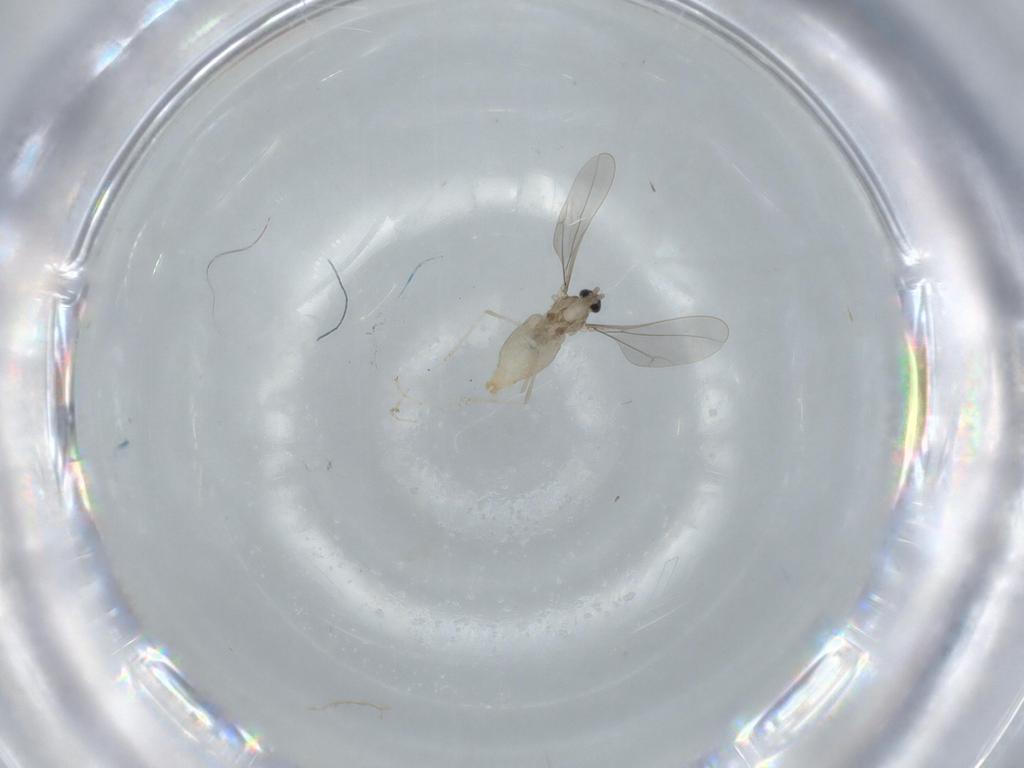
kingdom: Animalia
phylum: Arthropoda
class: Insecta
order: Diptera
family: Cecidomyiidae
